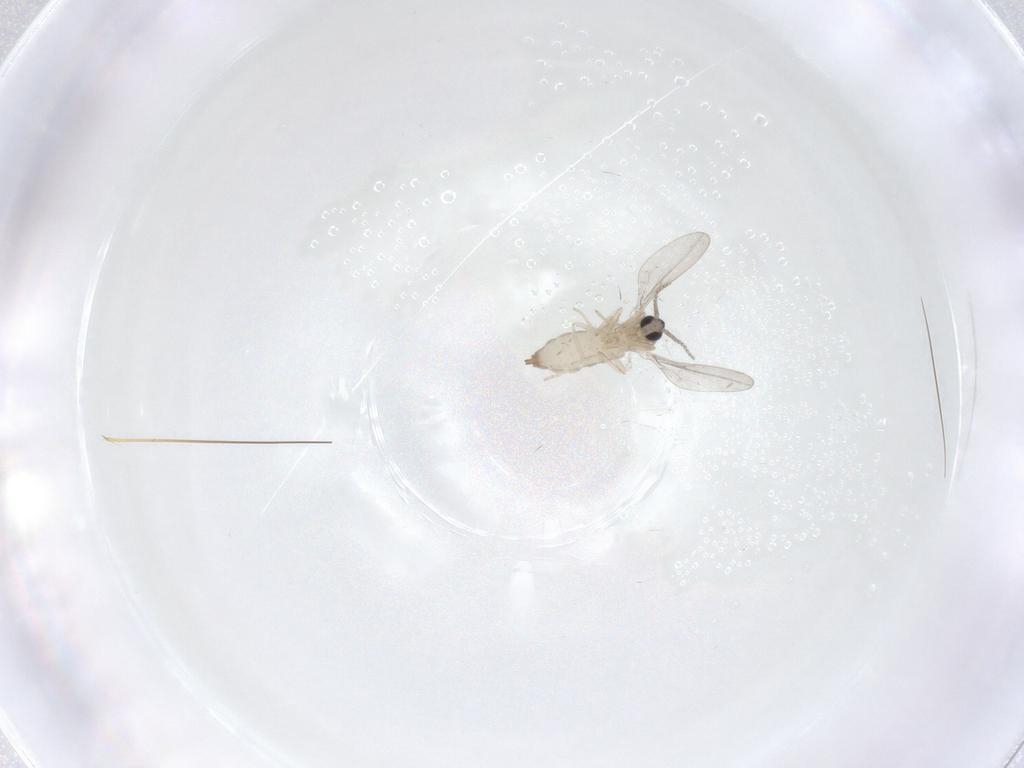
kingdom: Animalia
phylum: Arthropoda
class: Insecta
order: Diptera
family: Cecidomyiidae
